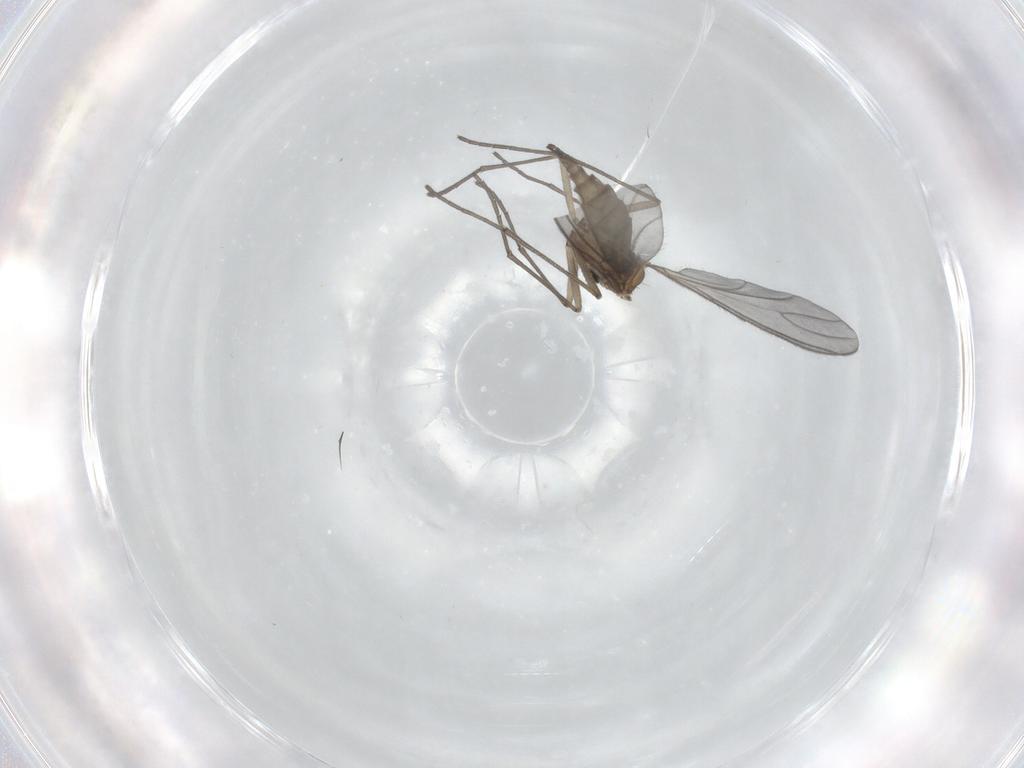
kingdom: Animalia
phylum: Arthropoda
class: Insecta
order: Diptera
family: Sciaridae
